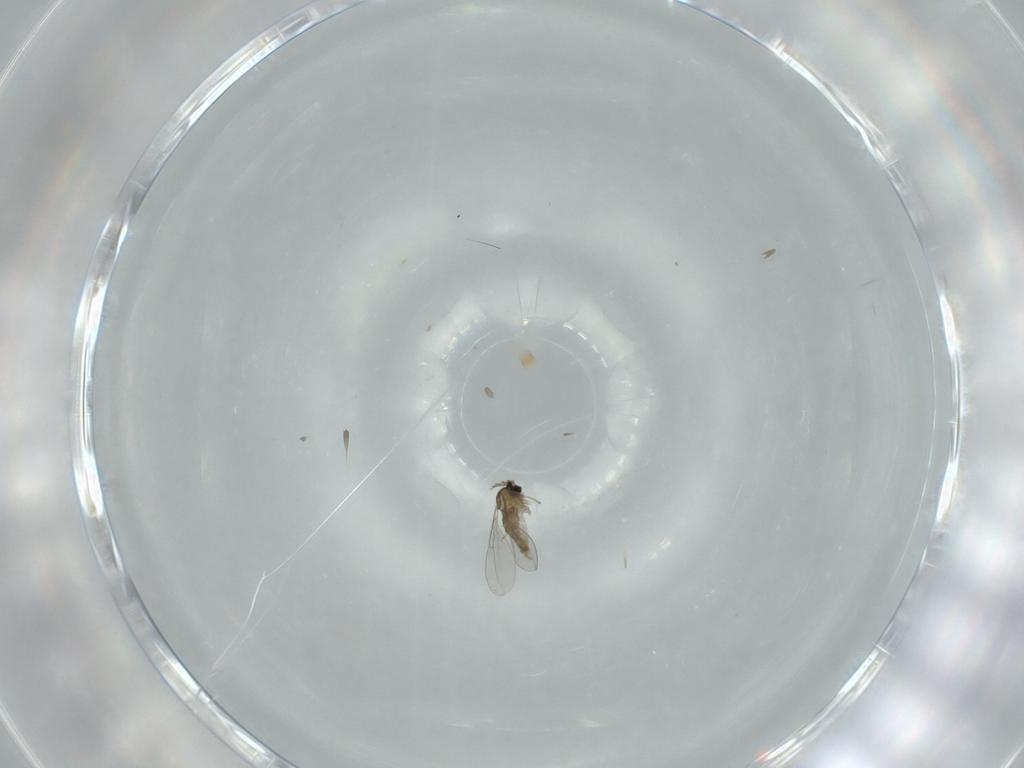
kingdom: Animalia
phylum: Arthropoda
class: Insecta
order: Diptera
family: Cecidomyiidae
